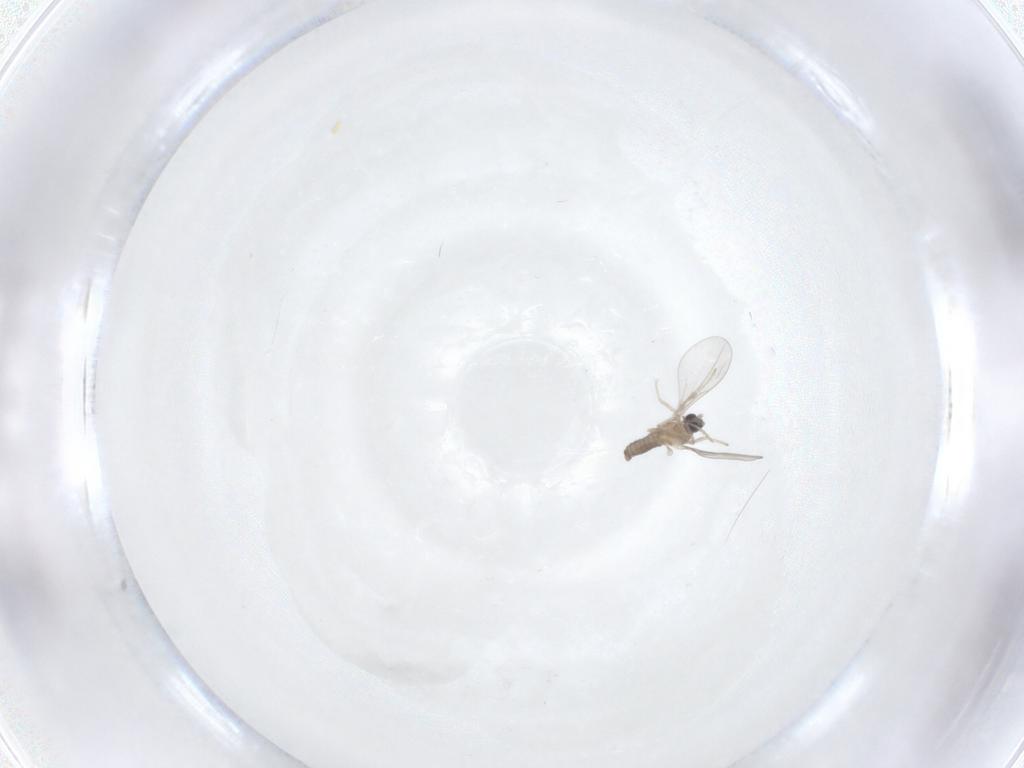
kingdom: Animalia
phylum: Arthropoda
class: Insecta
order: Diptera
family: Cecidomyiidae
